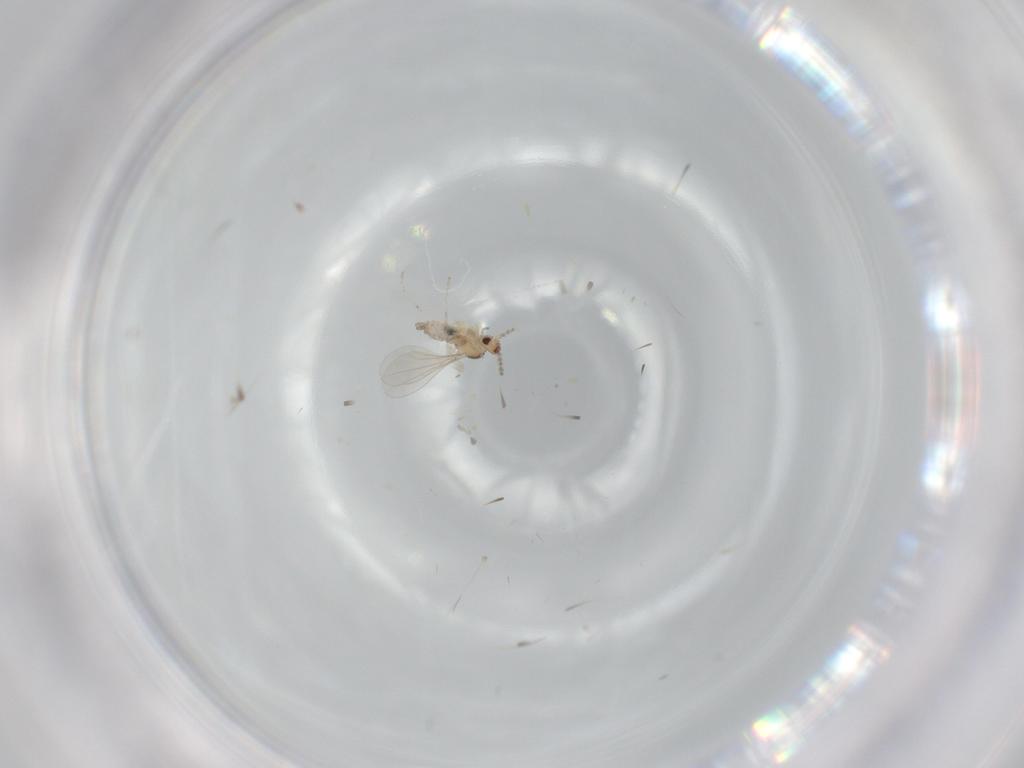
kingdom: Animalia
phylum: Arthropoda
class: Insecta
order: Diptera
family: Cecidomyiidae
